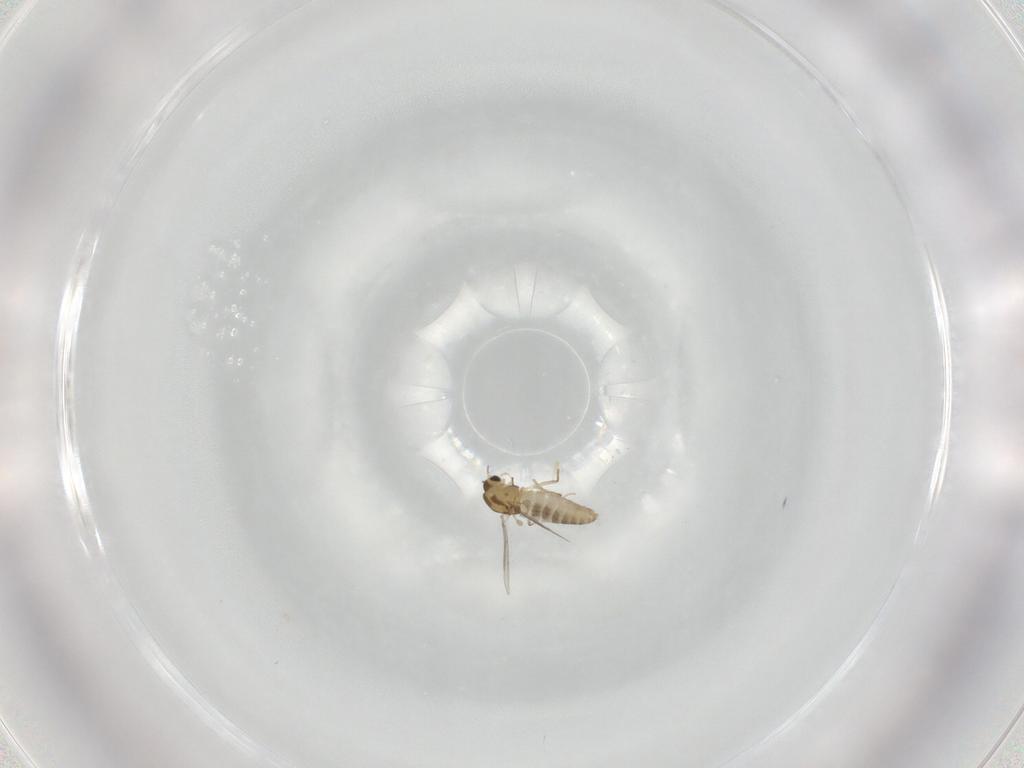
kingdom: Animalia
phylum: Arthropoda
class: Insecta
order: Diptera
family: Chironomidae
